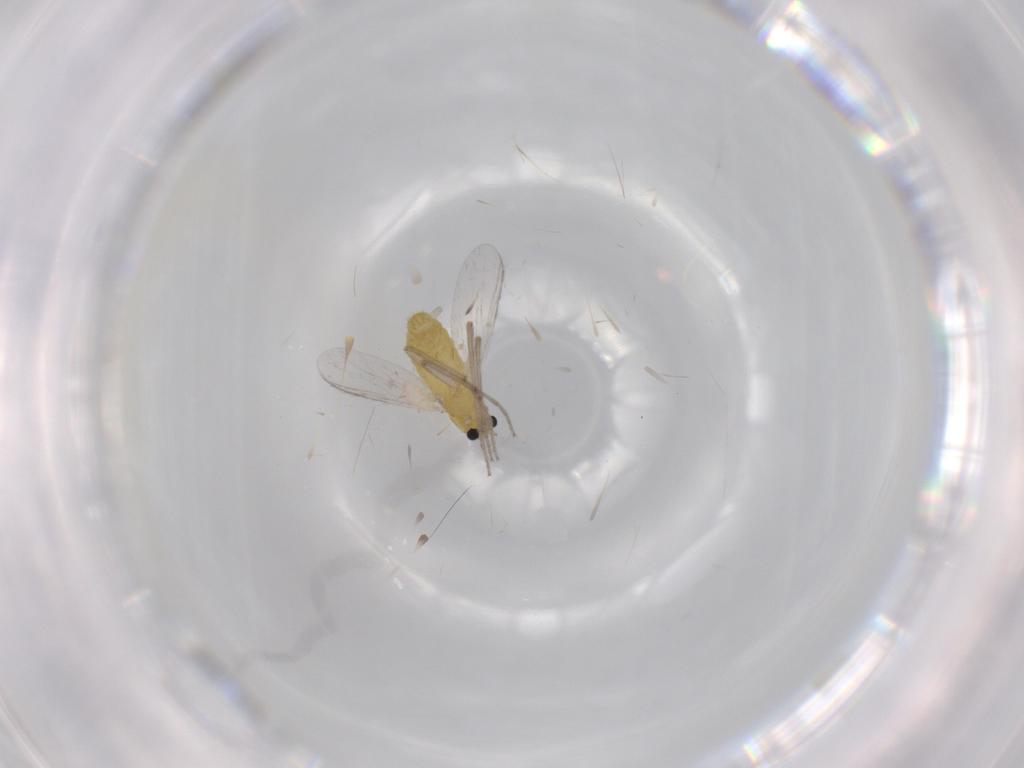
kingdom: Animalia
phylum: Arthropoda
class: Insecta
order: Diptera
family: Chironomidae
